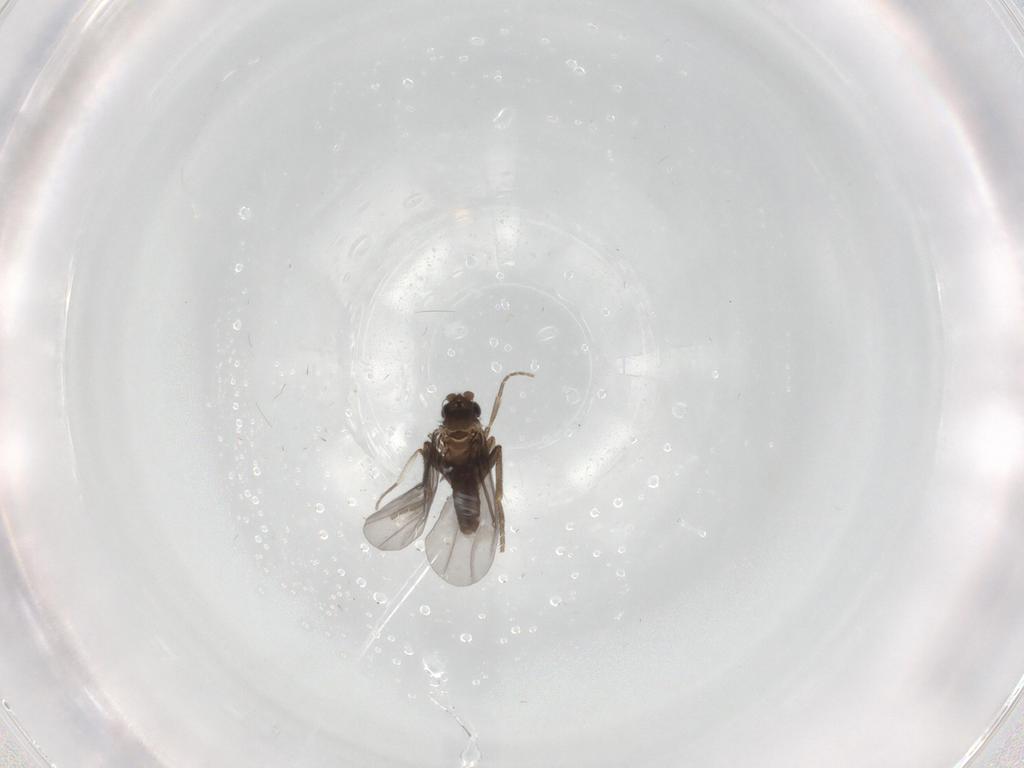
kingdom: Animalia
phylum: Arthropoda
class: Insecta
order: Diptera
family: Phoridae
